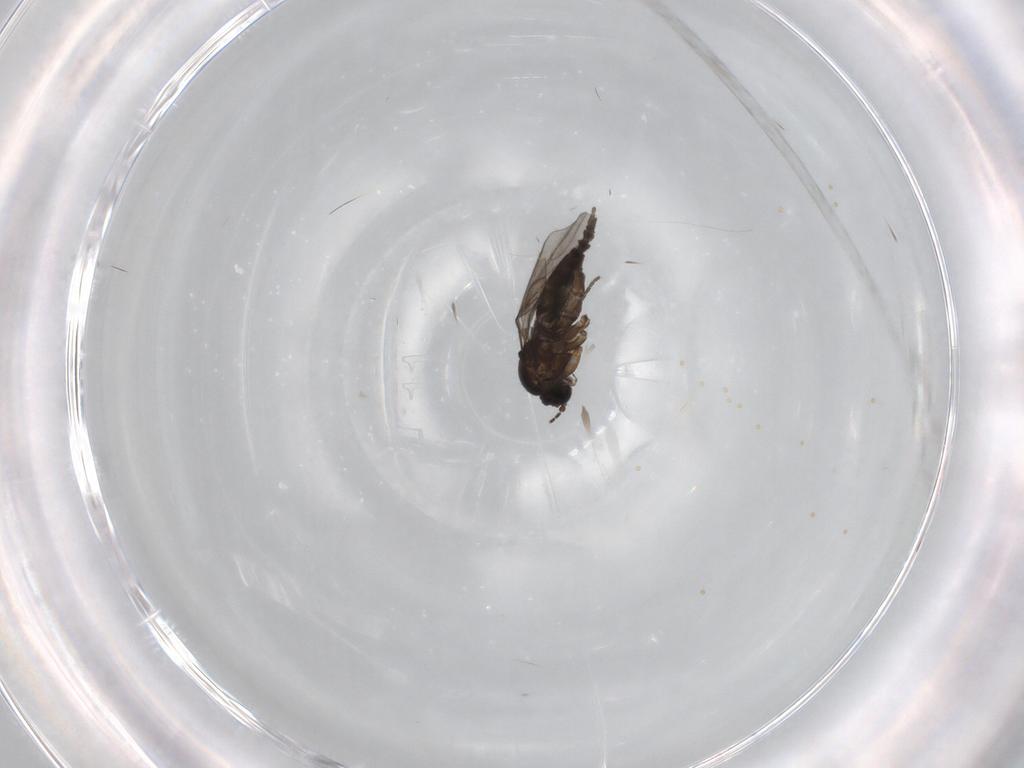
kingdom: Animalia
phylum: Arthropoda
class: Insecta
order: Diptera
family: Sciaridae
